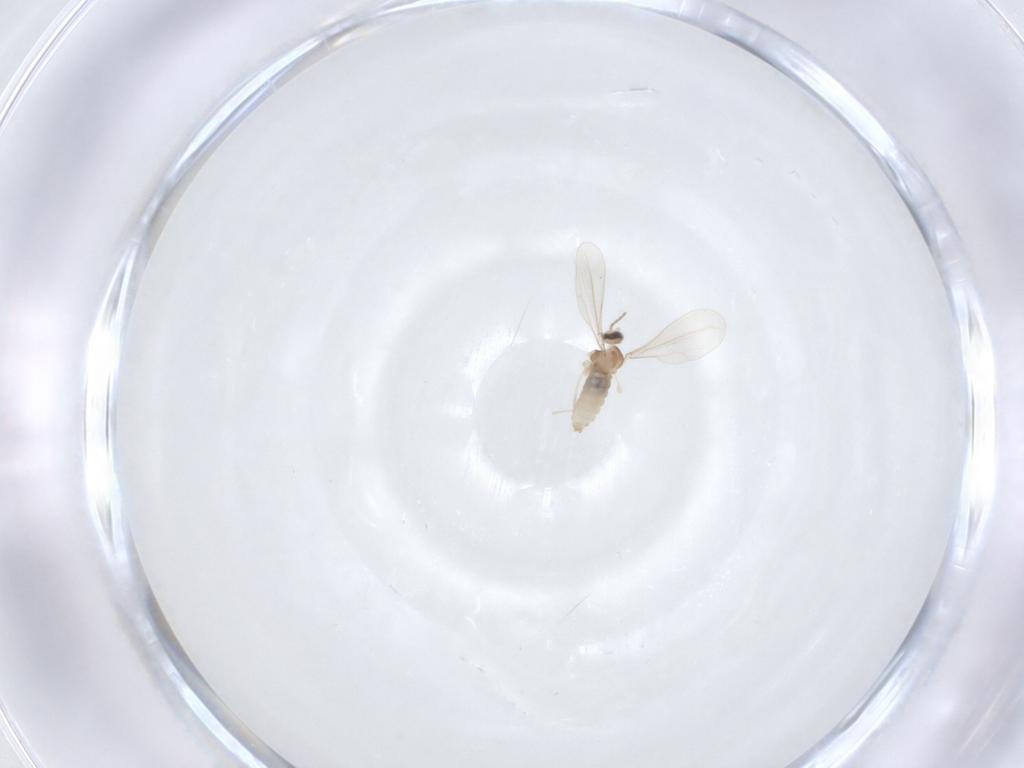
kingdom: Animalia
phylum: Arthropoda
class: Insecta
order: Diptera
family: Cecidomyiidae
